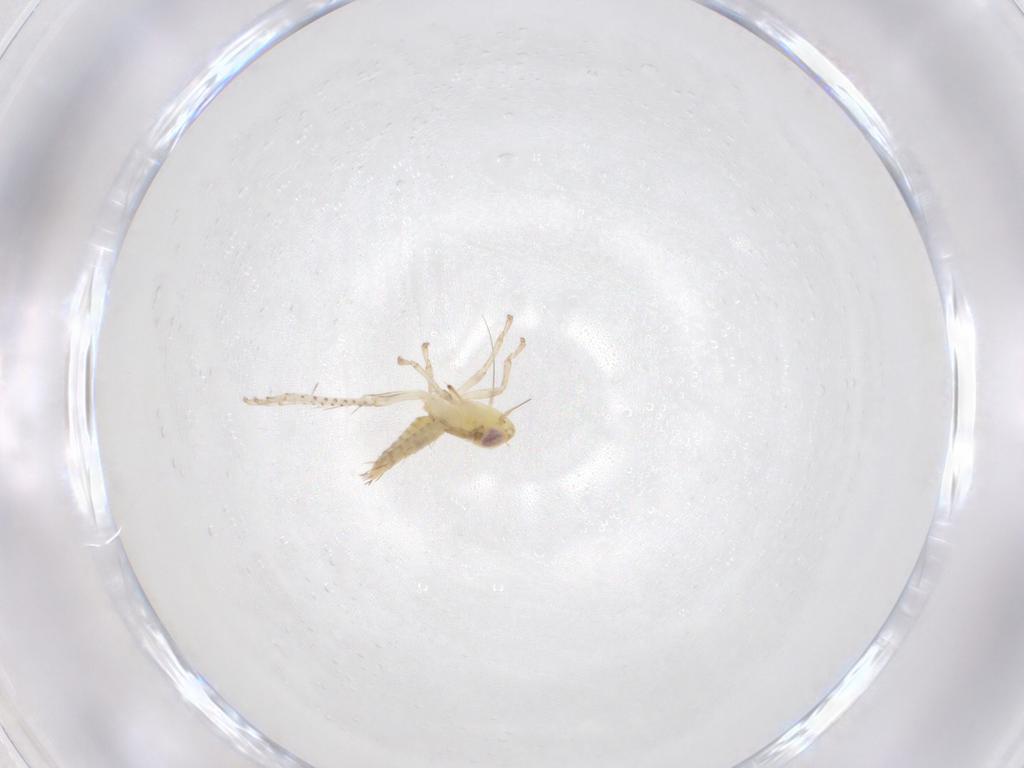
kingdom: Animalia
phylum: Arthropoda
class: Insecta
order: Hemiptera
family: Cicadellidae
